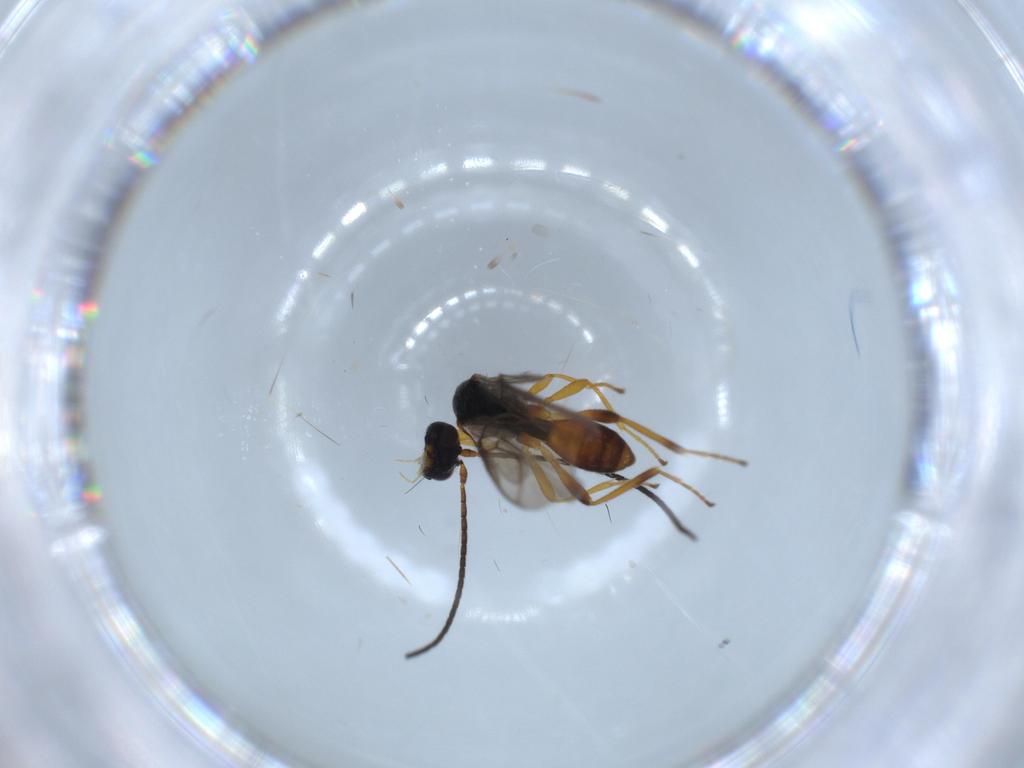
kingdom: Animalia
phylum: Arthropoda
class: Insecta
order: Hymenoptera
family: Braconidae
